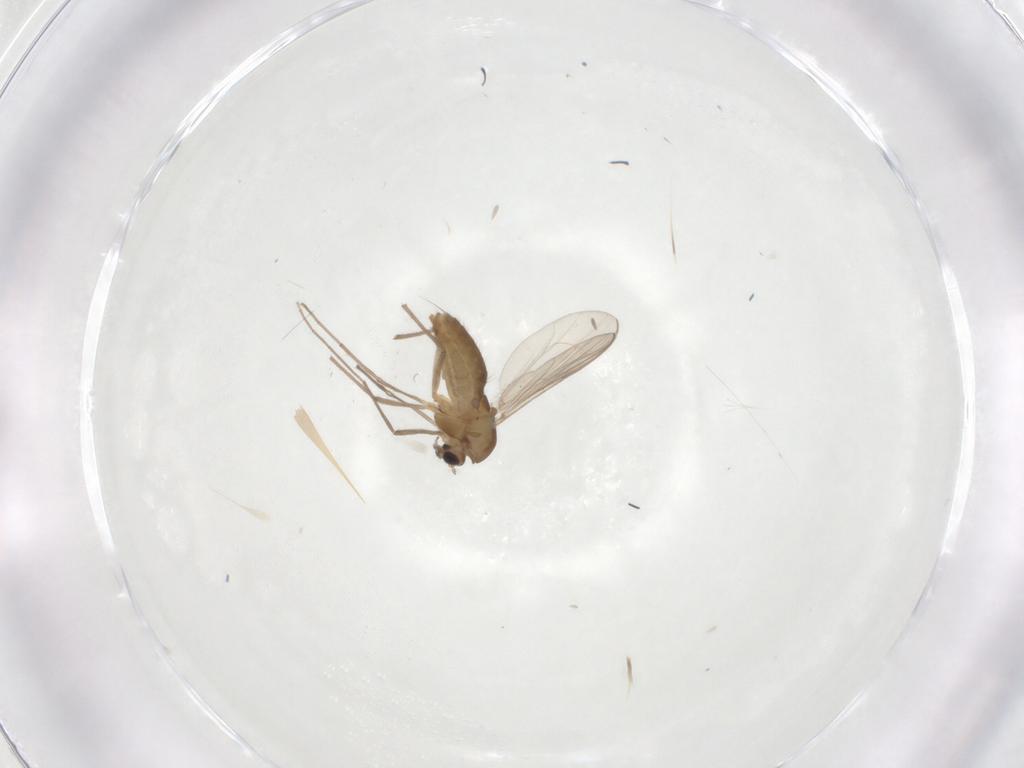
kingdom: Animalia
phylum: Arthropoda
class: Insecta
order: Diptera
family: Chironomidae
